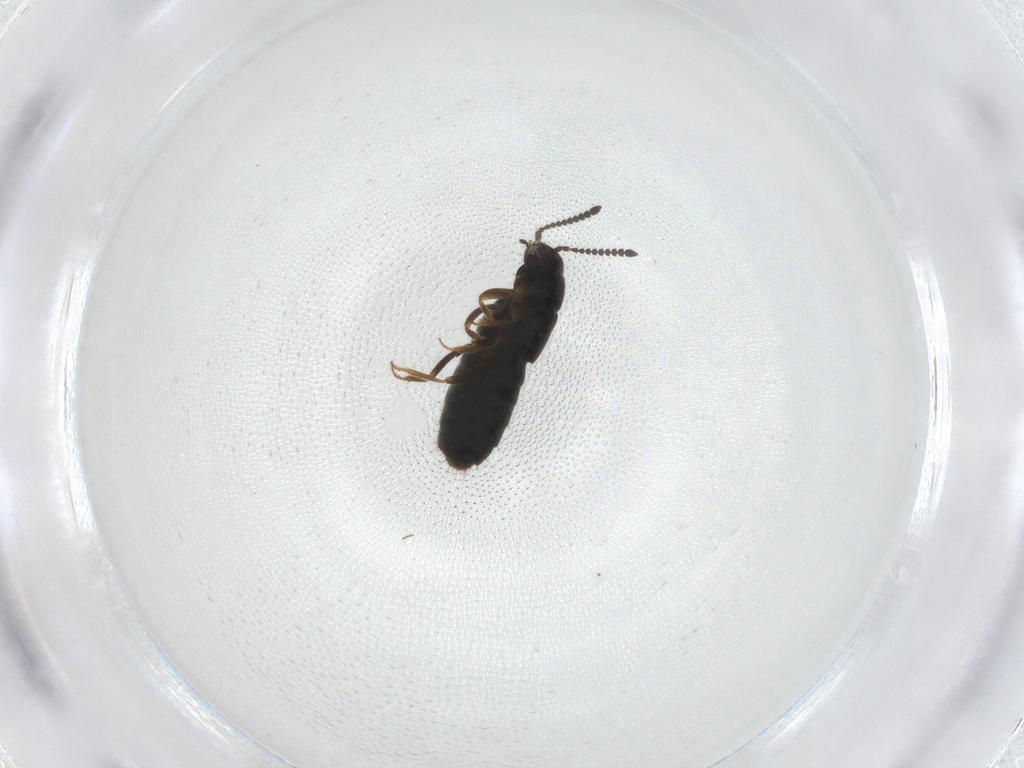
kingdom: Animalia
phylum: Arthropoda
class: Insecta
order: Coleoptera
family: Staphylinidae
